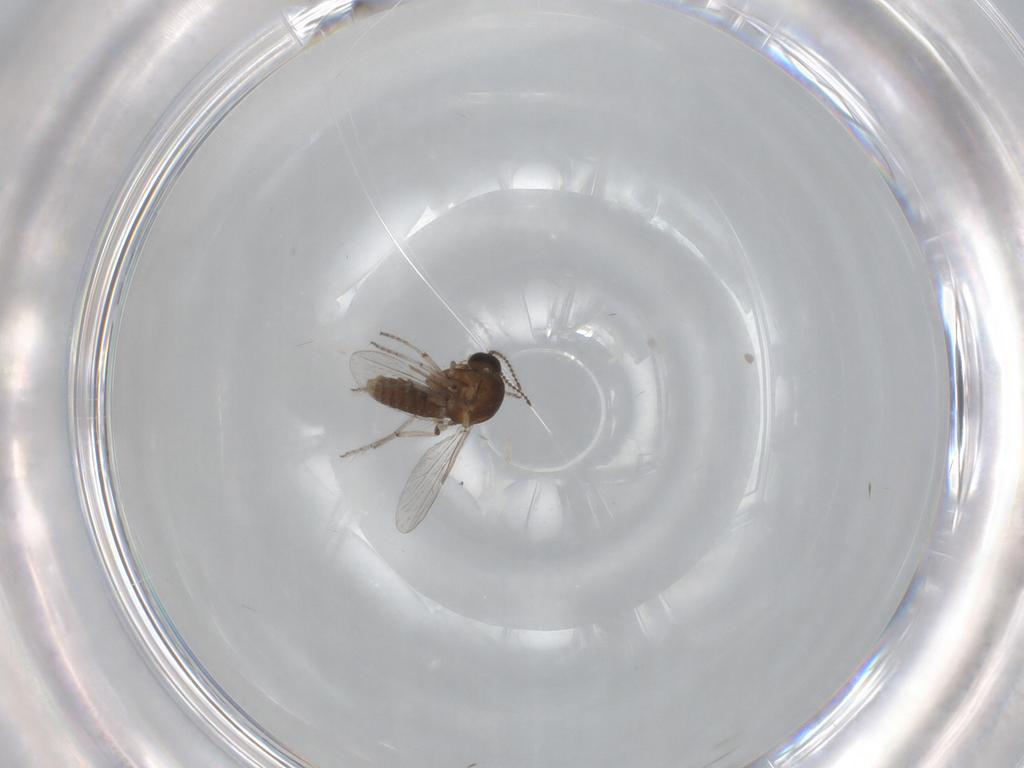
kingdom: Animalia
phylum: Arthropoda
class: Insecta
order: Diptera
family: Ceratopogonidae
